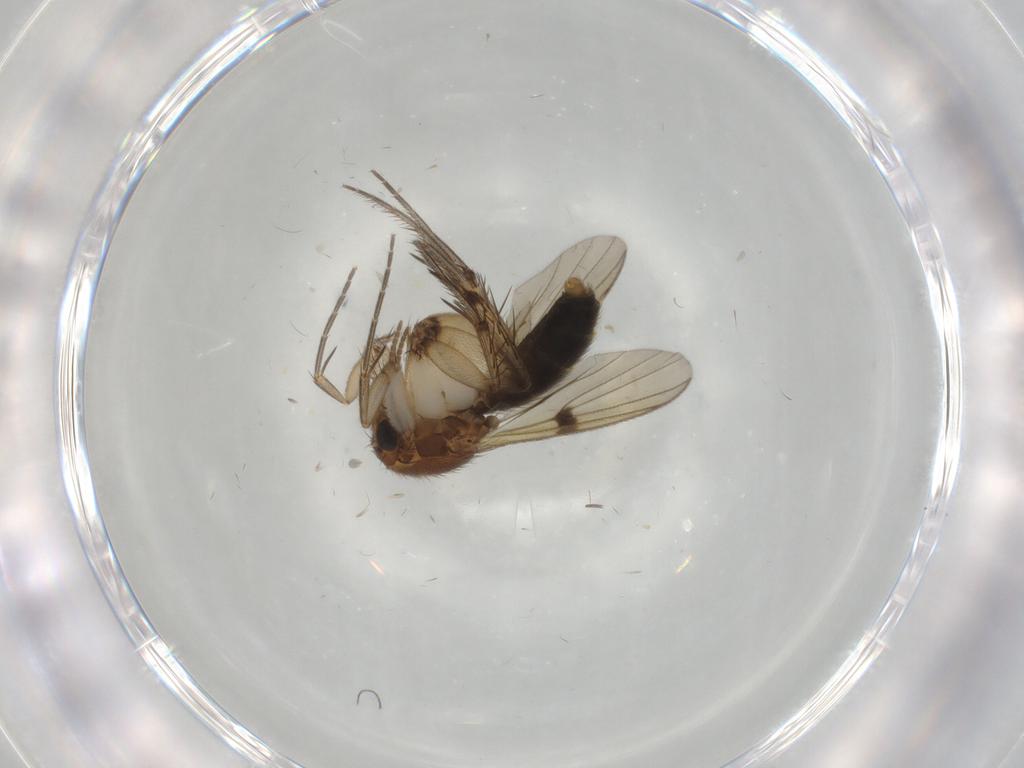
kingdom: Animalia
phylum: Arthropoda
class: Insecta
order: Diptera
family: Mycetophilidae
